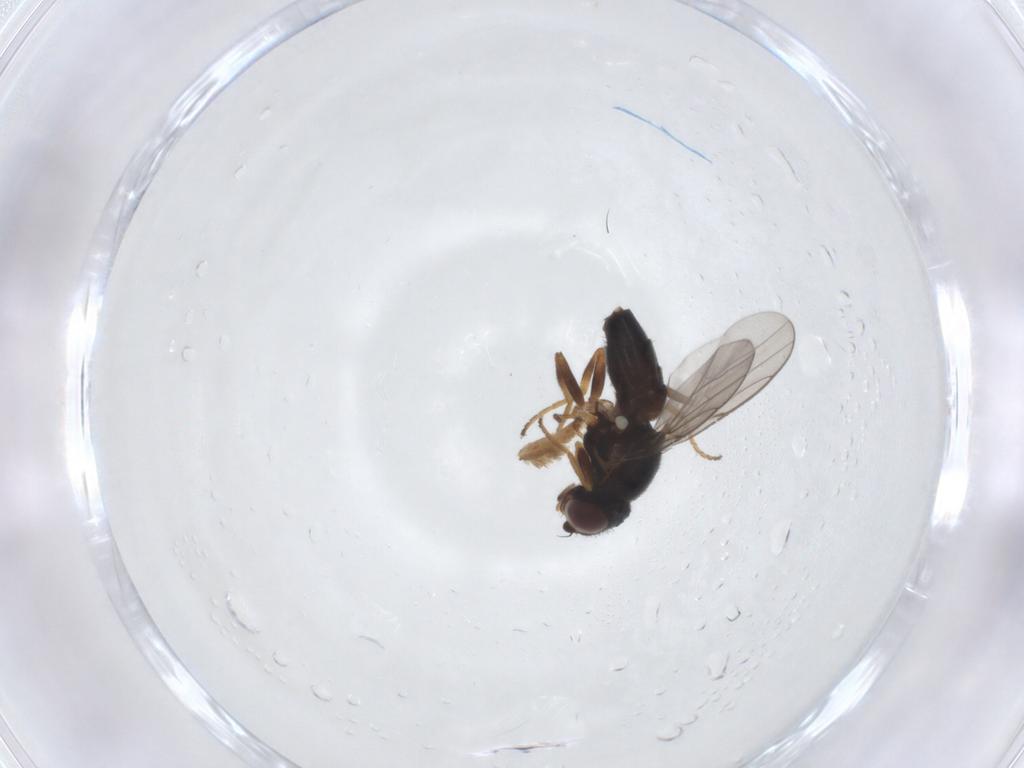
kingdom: Animalia
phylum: Arthropoda
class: Insecta
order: Diptera
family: Chloropidae
